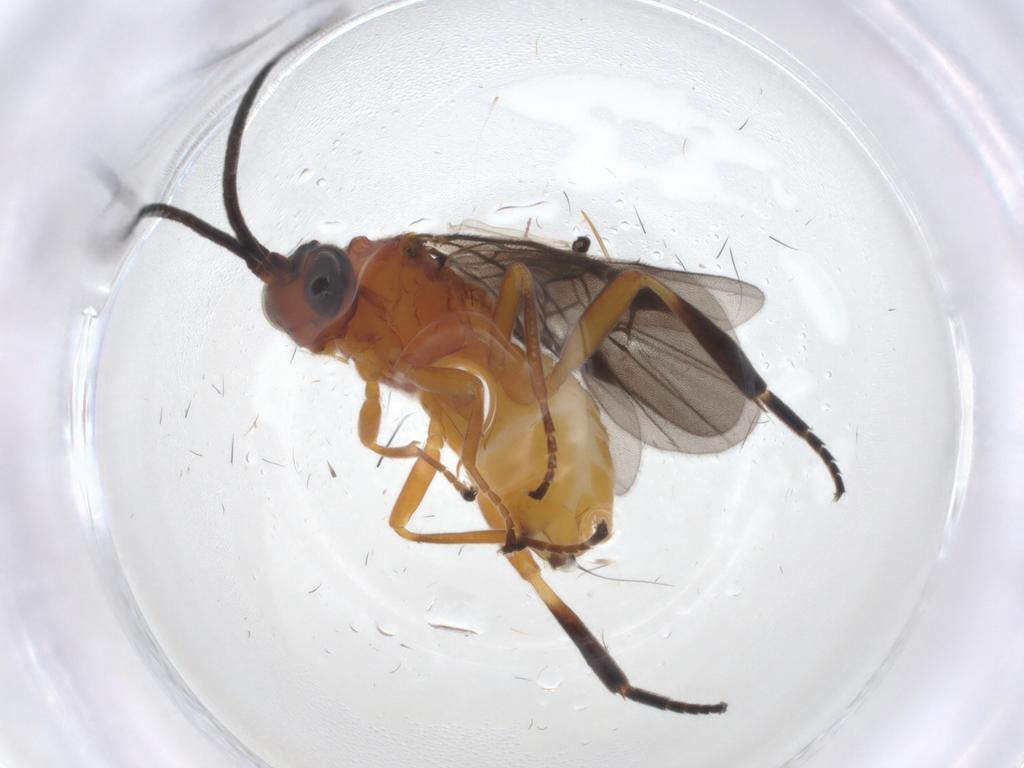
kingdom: Animalia
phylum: Arthropoda
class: Insecta
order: Hymenoptera
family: Braconidae
